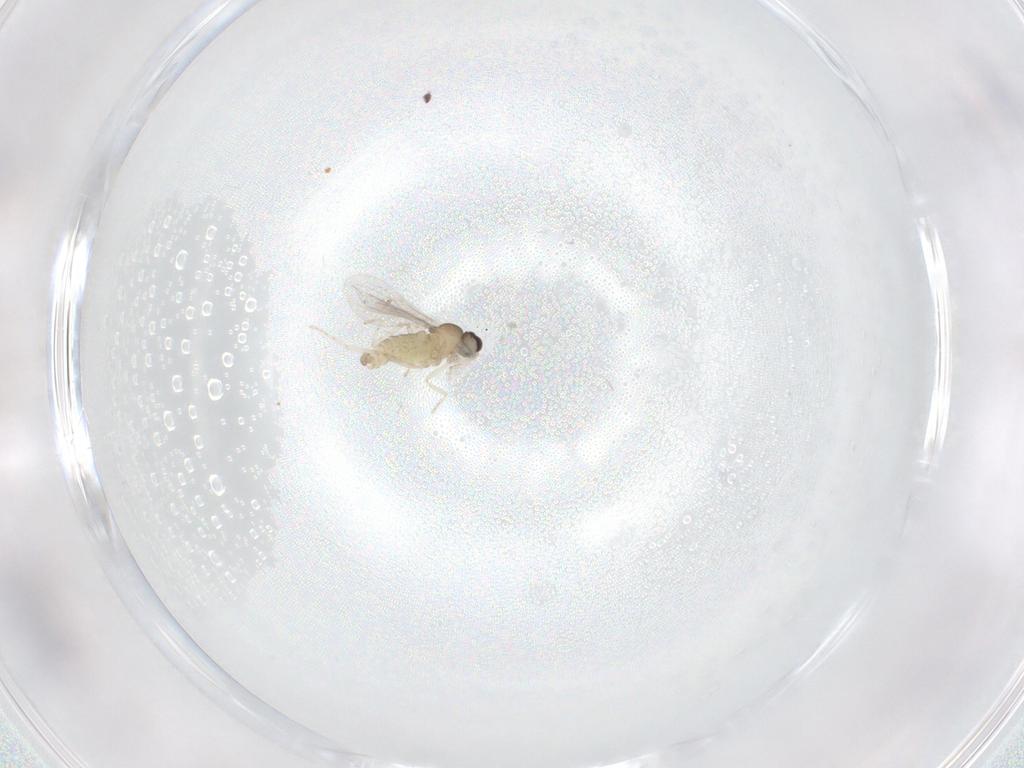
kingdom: Animalia
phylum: Arthropoda
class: Insecta
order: Diptera
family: Cecidomyiidae
